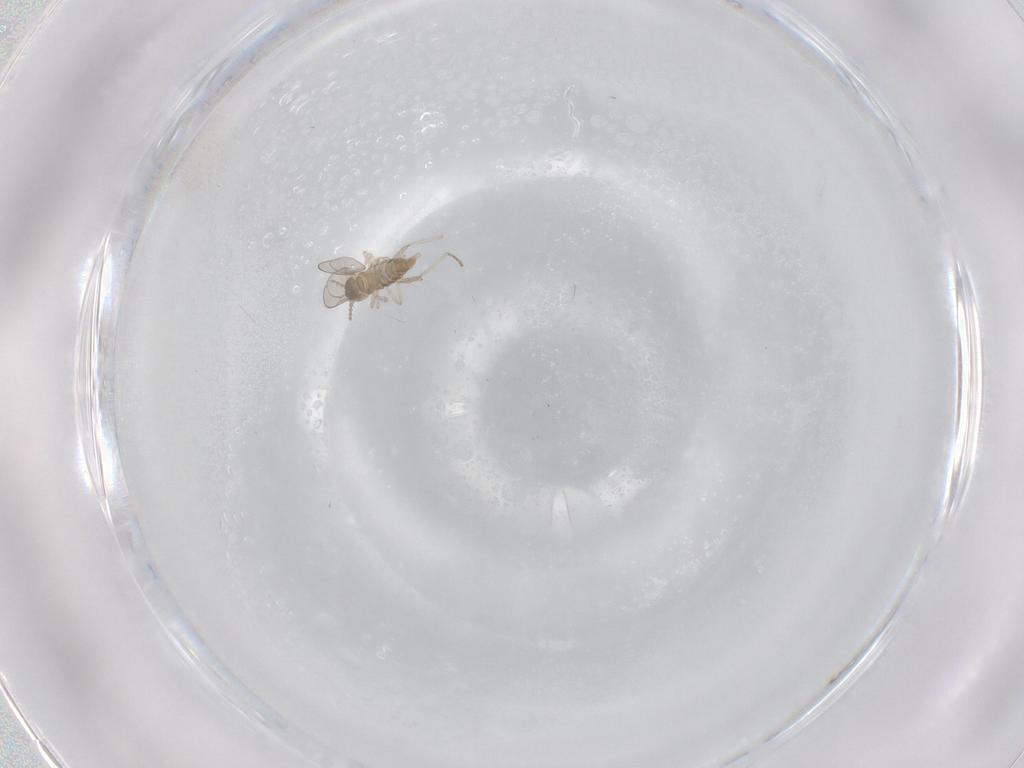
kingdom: Animalia
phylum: Arthropoda
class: Insecta
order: Diptera
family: Cecidomyiidae
